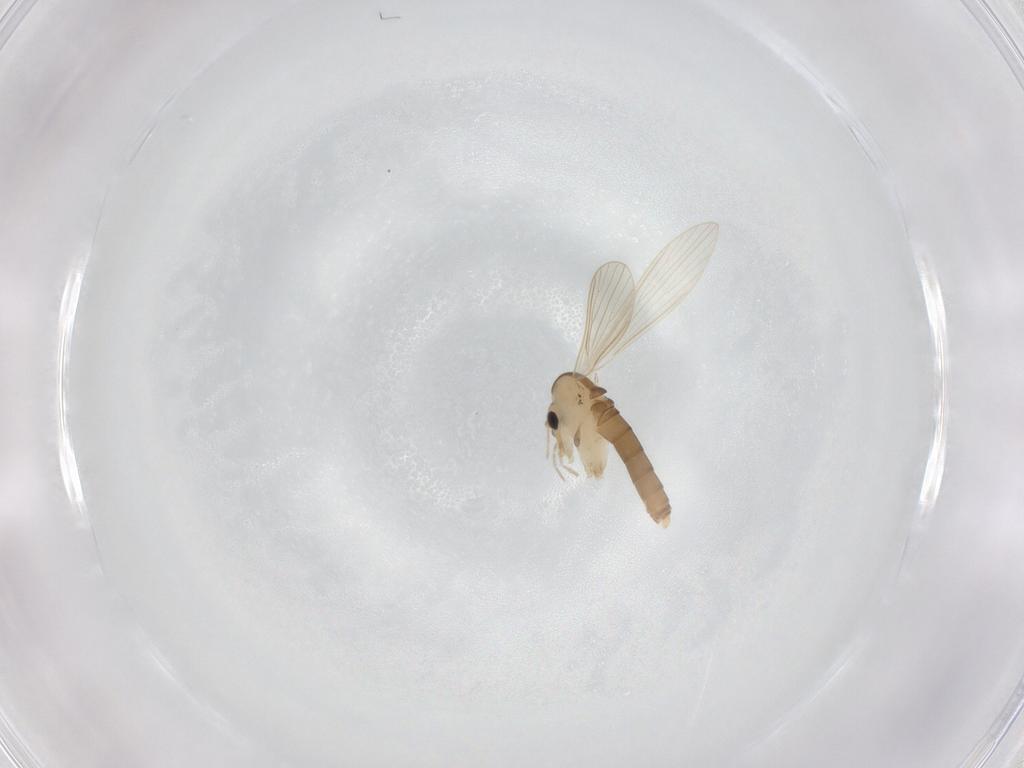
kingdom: Animalia
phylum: Arthropoda
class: Insecta
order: Diptera
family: Psychodidae
